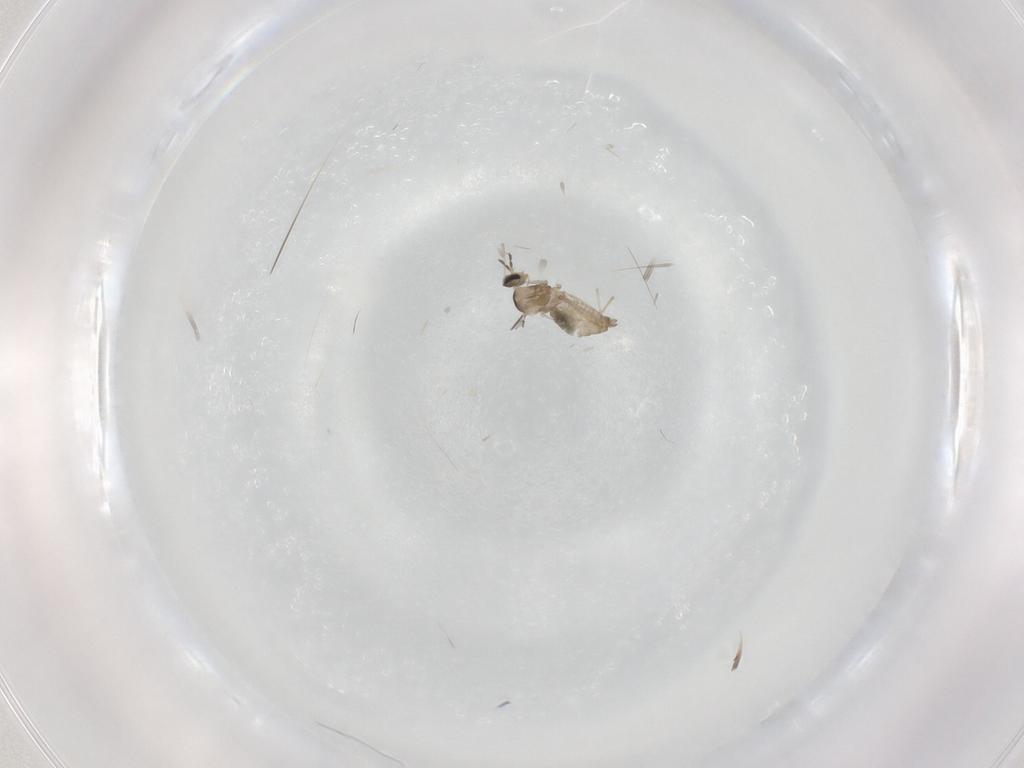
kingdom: Animalia
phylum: Arthropoda
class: Insecta
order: Diptera
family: Cecidomyiidae
